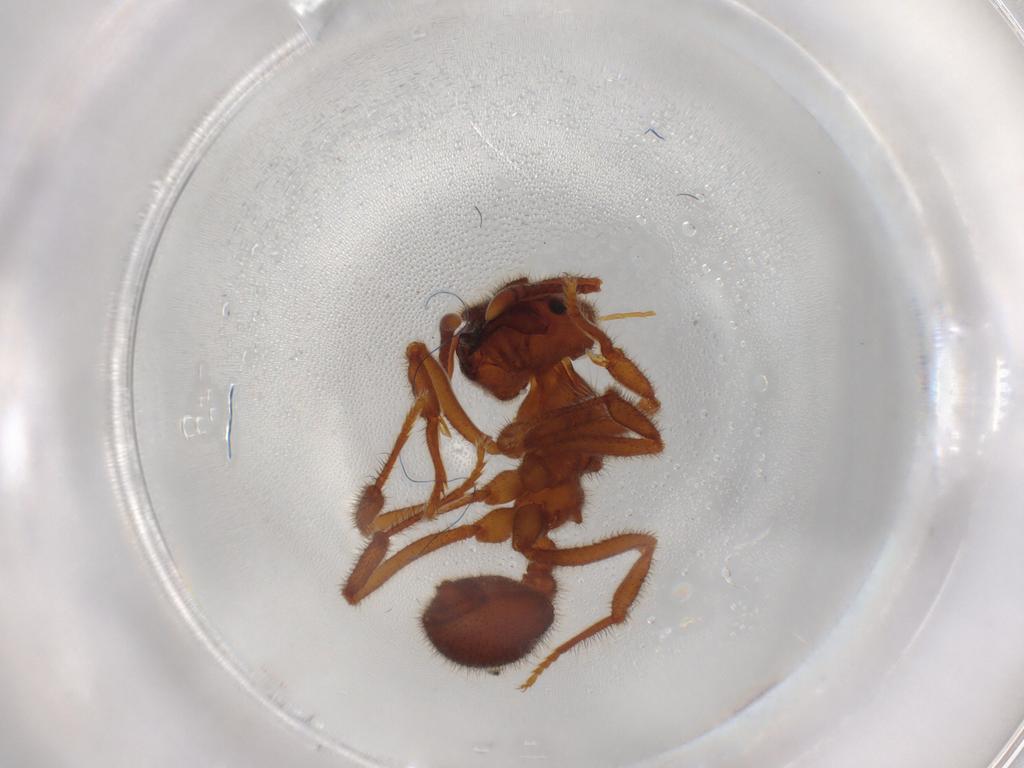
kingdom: Animalia
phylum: Arthropoda
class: Insecta
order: Hymenoptera
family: Formicidae
